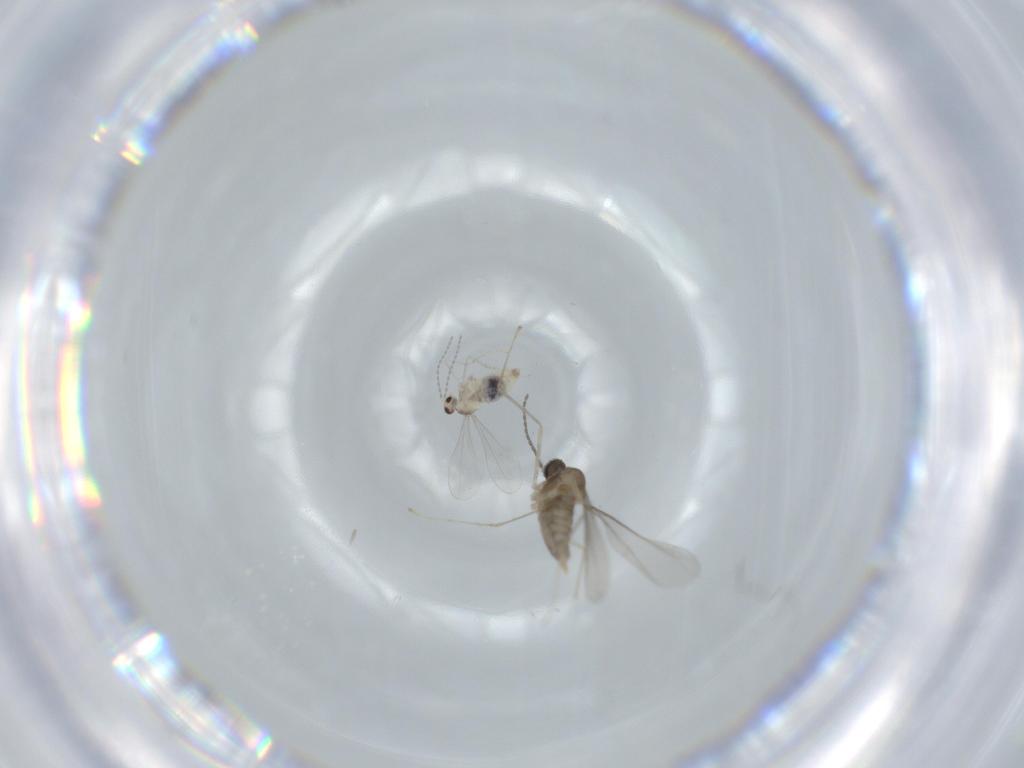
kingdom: Animalia
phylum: Arthropoda
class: Insecta
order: Diptera
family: Cecidomyiidae
